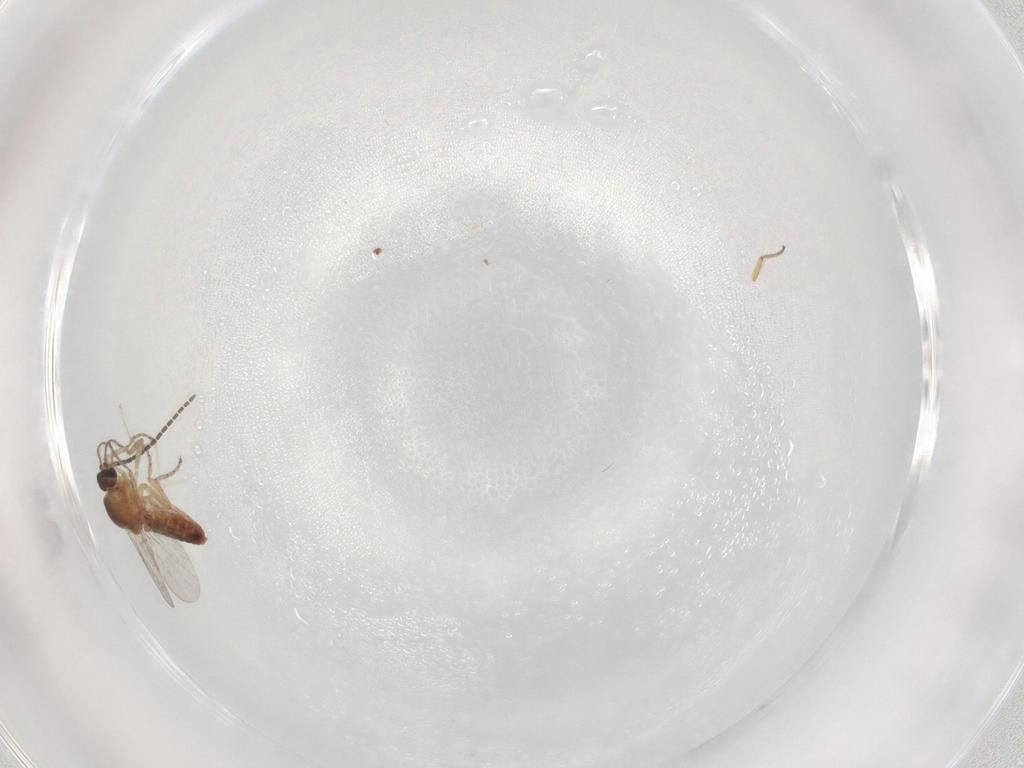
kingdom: Animalia
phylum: Arthropoda
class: Insecta
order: Diptera
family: Ceratopogonidae
